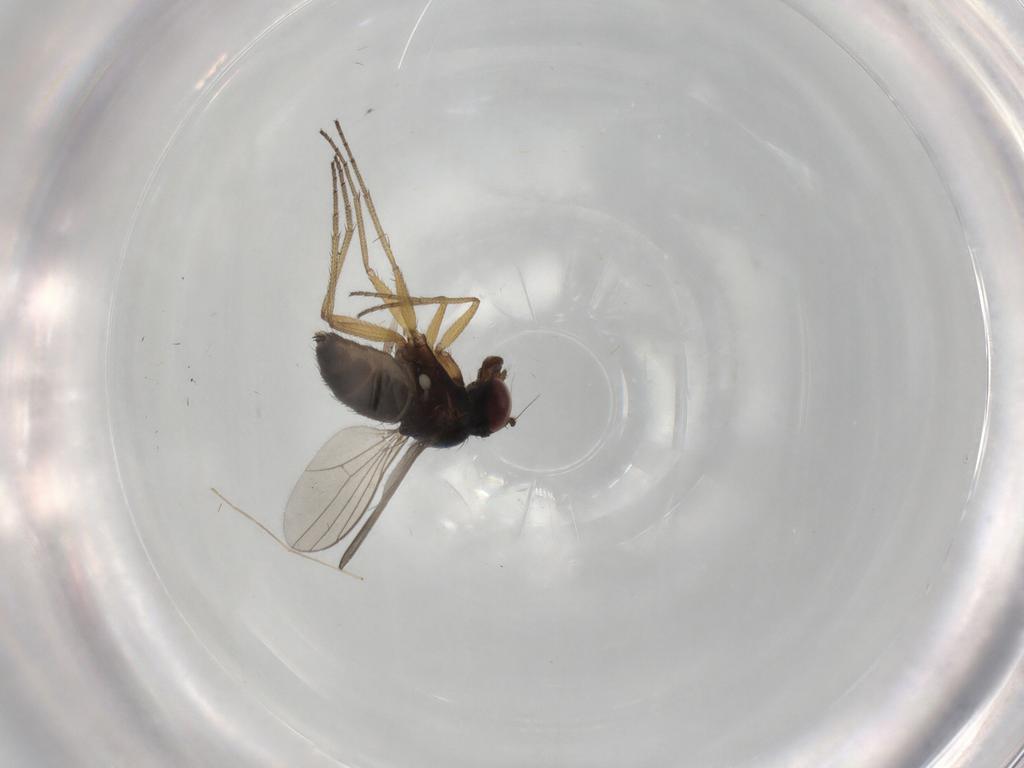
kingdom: Animalia
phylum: Arthropoda
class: Insecta
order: Diptera
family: Dolichopodidae
